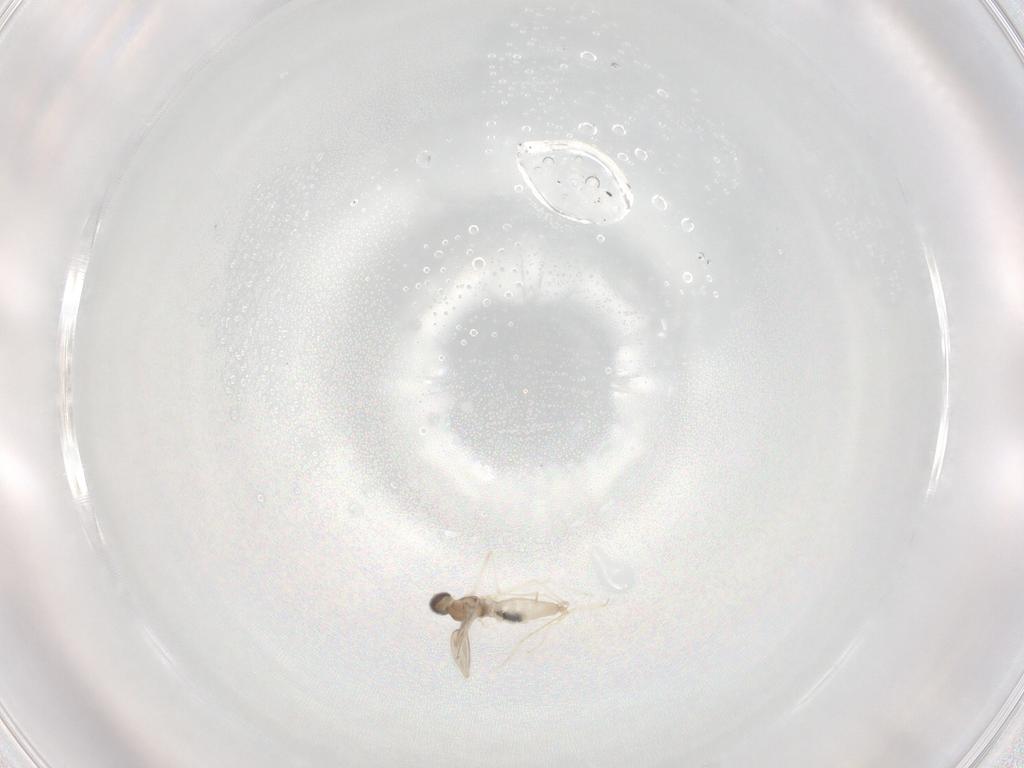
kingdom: Animalia
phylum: Arthropoda
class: Insecta
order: Diptera
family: Cecidomyiidae
